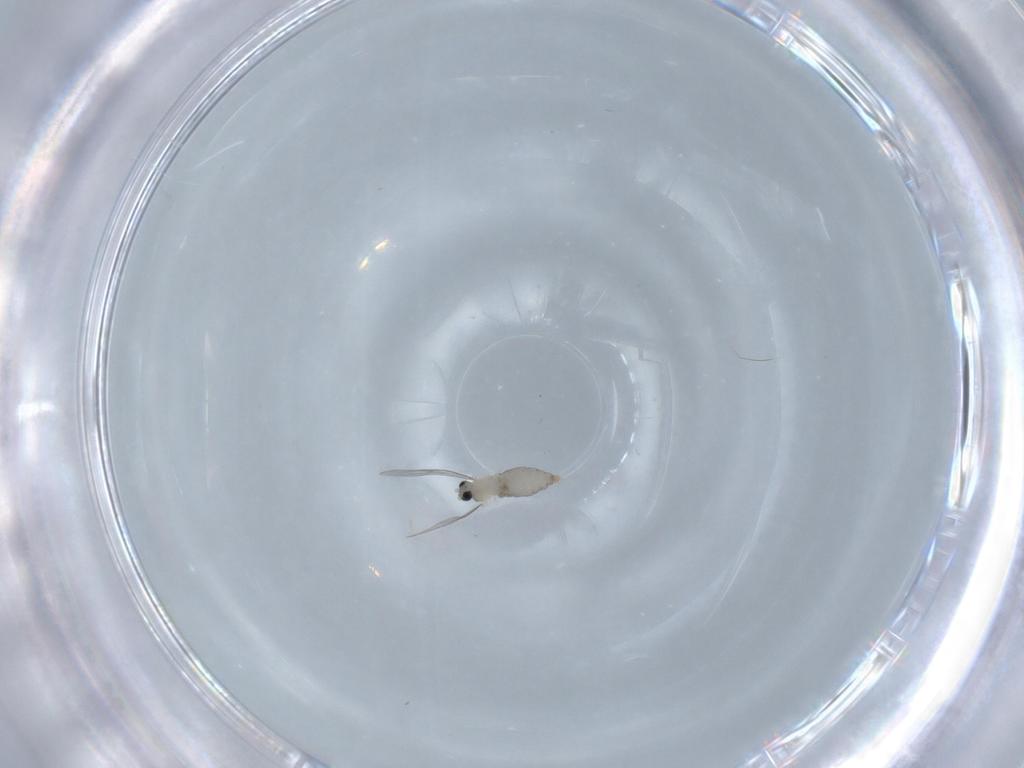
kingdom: Animalia
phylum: Arthropoda
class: Insecta
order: Diptera
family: Sciaridae
